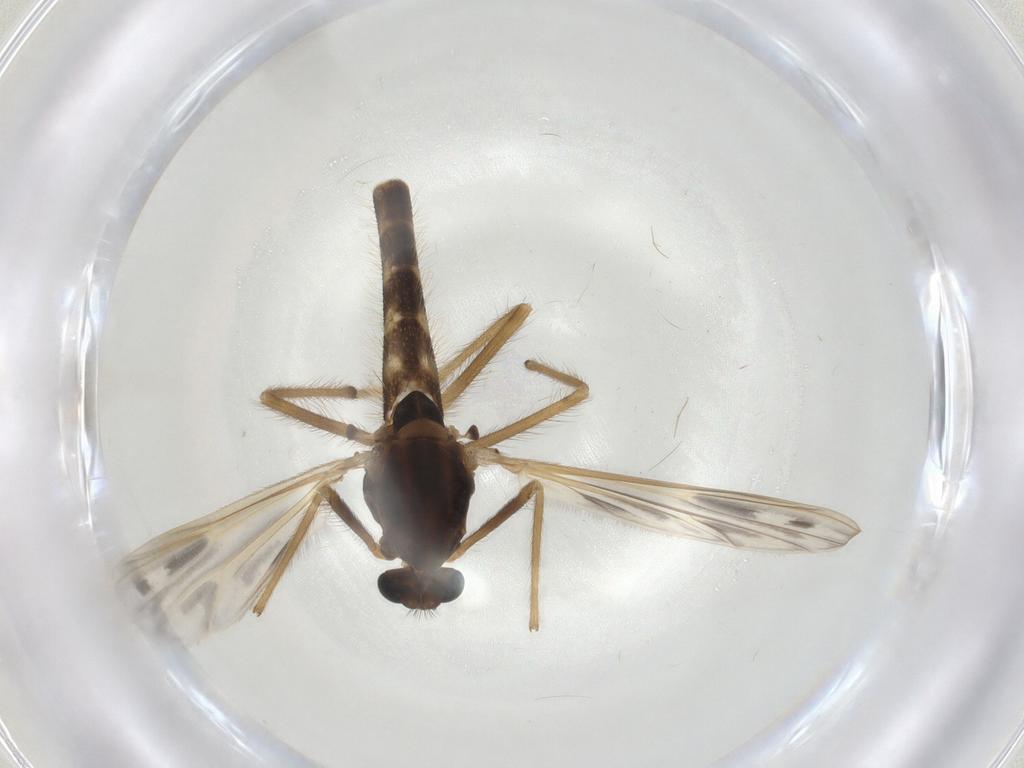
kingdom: Animalia
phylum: Arthropoda
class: Insecta
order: Diptera
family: Chironomidae
